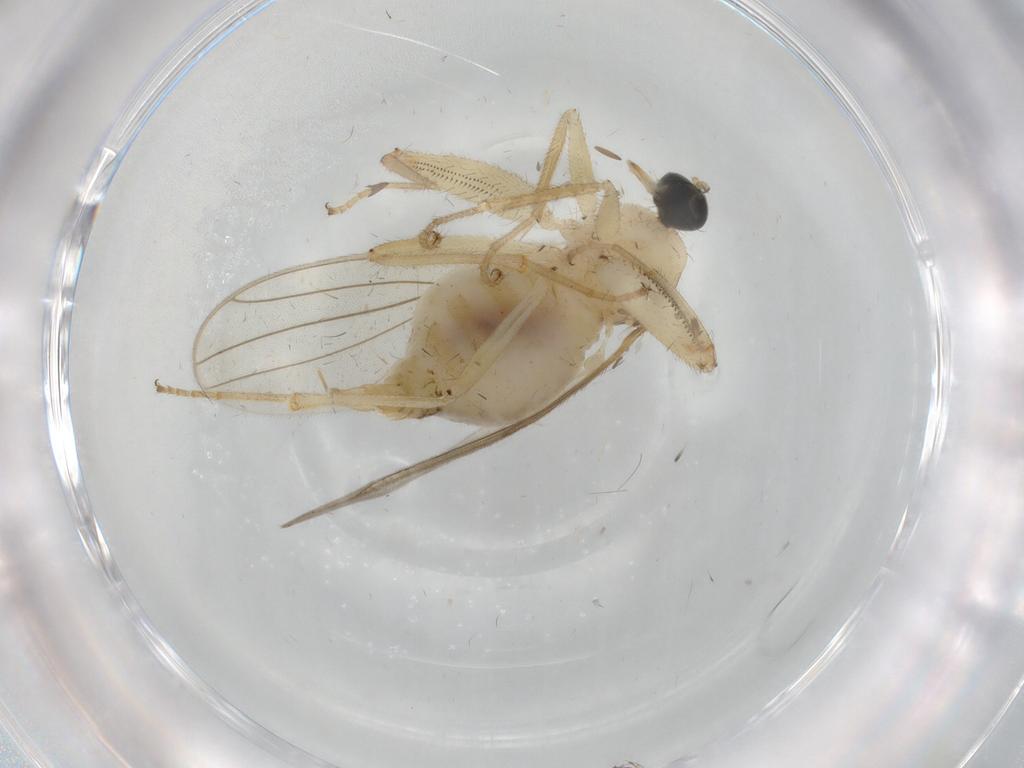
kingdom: Animalia
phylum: Arthropoda
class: Insecta
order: Diptera
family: Hybotidae
